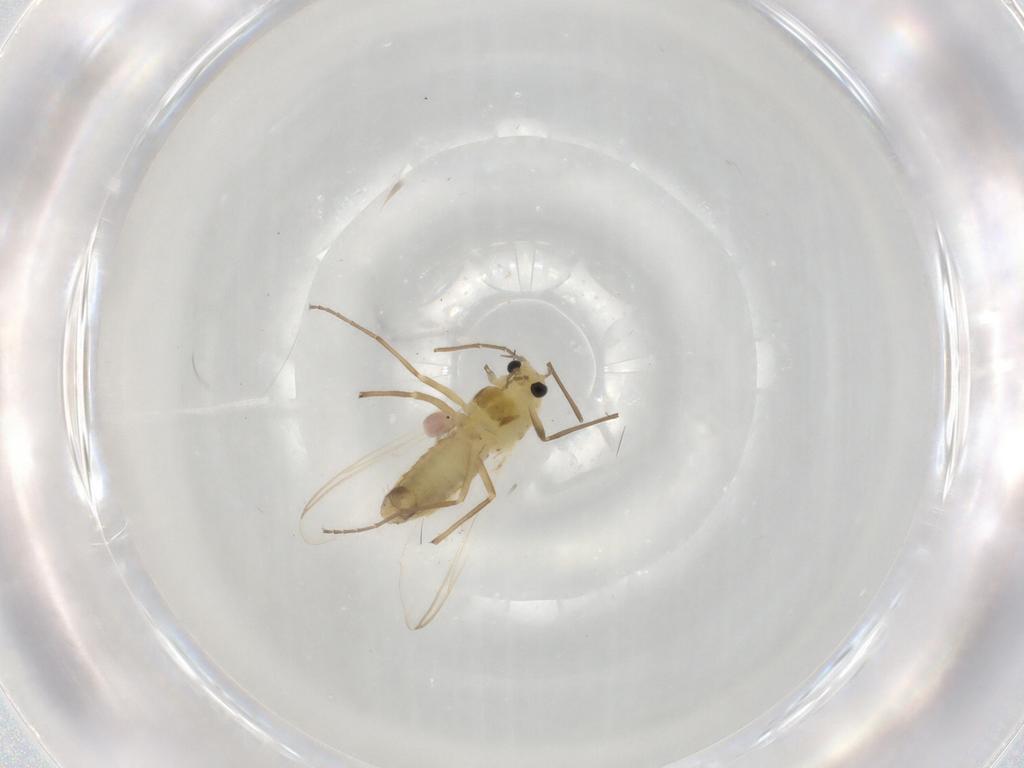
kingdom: Animalia
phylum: Arthropoda
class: Insecta
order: Diptera
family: Chironomidae
